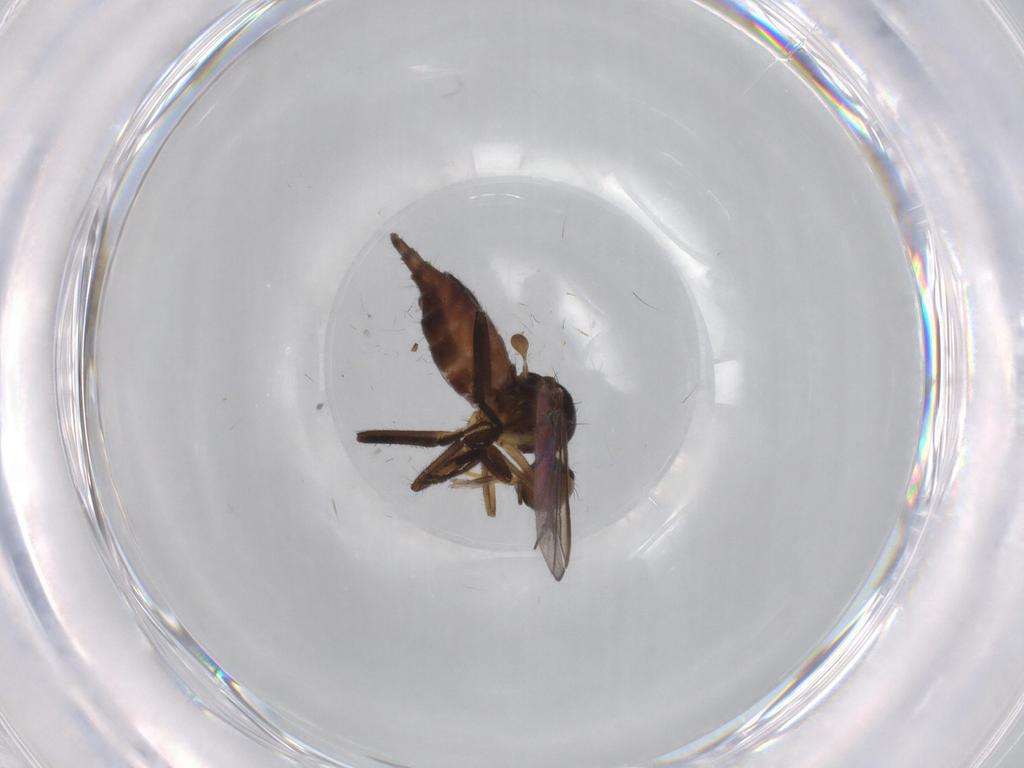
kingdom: Animalia
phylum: Arthropoda
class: Insecta
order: Diptera
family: Empididae
